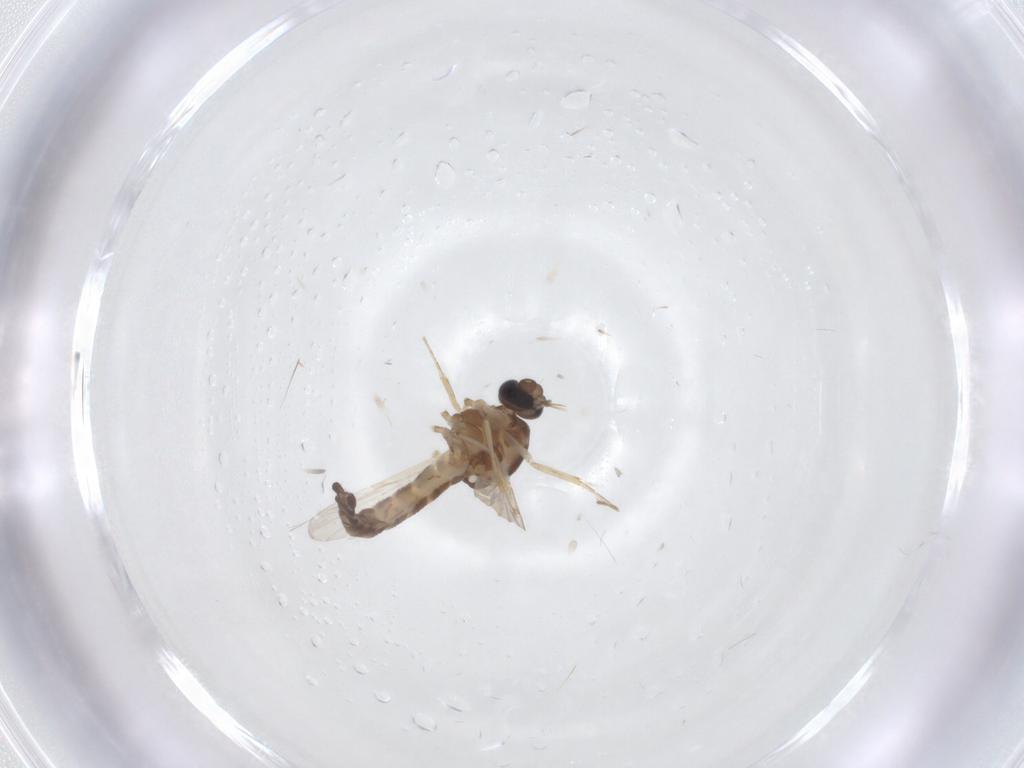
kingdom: Animalia
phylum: Arthropoda
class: Insecta
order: Diptera
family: Ceratopogonidae
